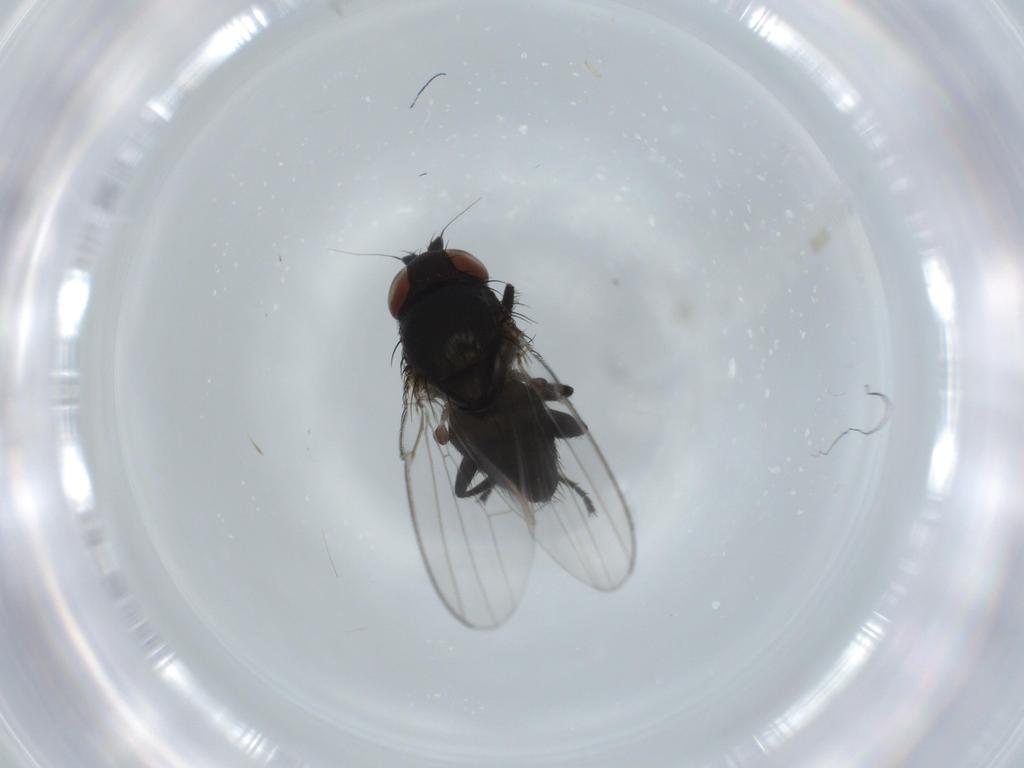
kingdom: Animalia
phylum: Arthropoda
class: Insecta
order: Diptera
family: Milichiidae
